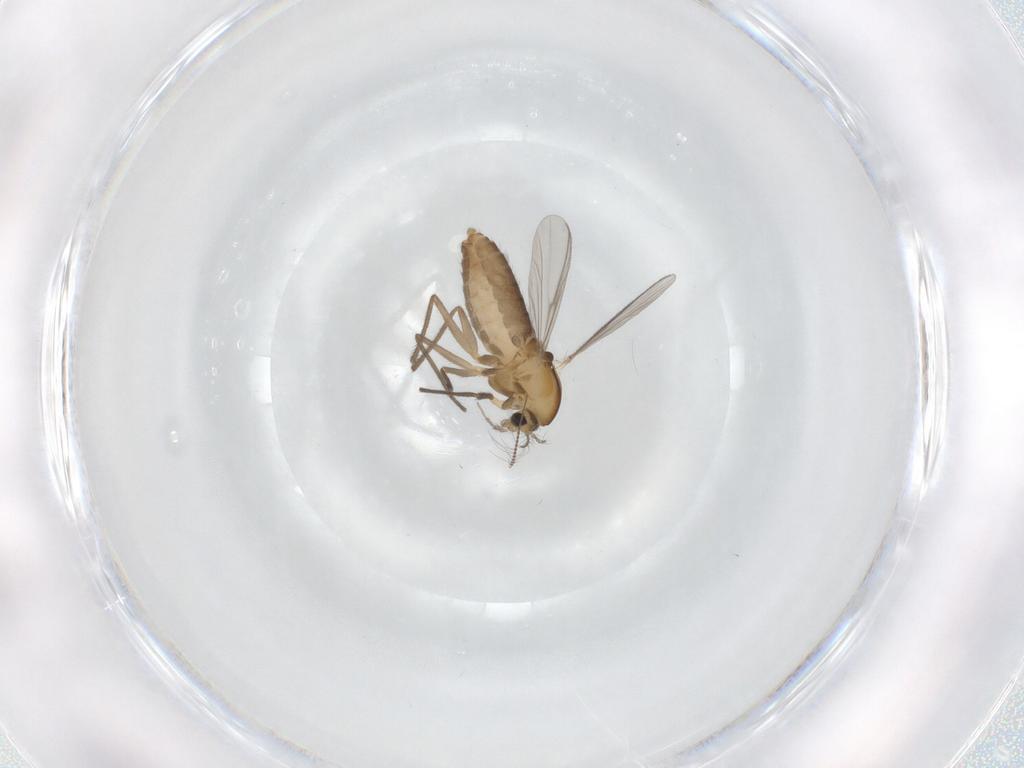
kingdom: Animalia
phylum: Arthropoda
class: Insecta
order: Diptera
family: Chironomidae
